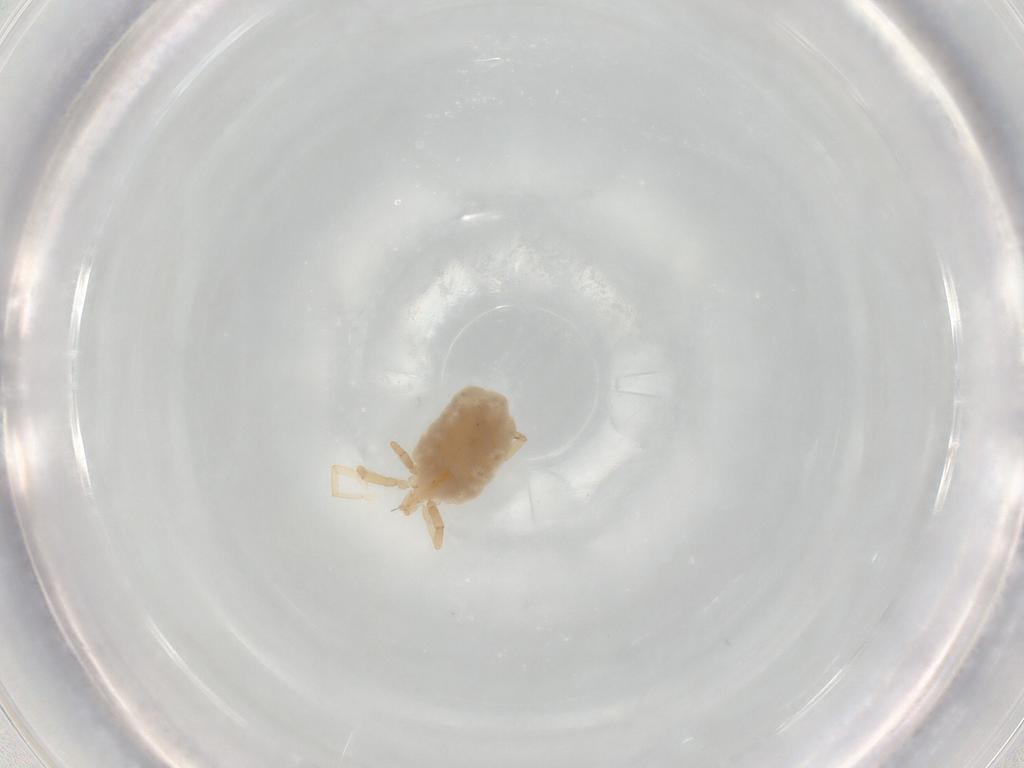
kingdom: Animalia
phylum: Arthropoda
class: Arachnida
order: Trombidiformes
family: Erythraeidae
